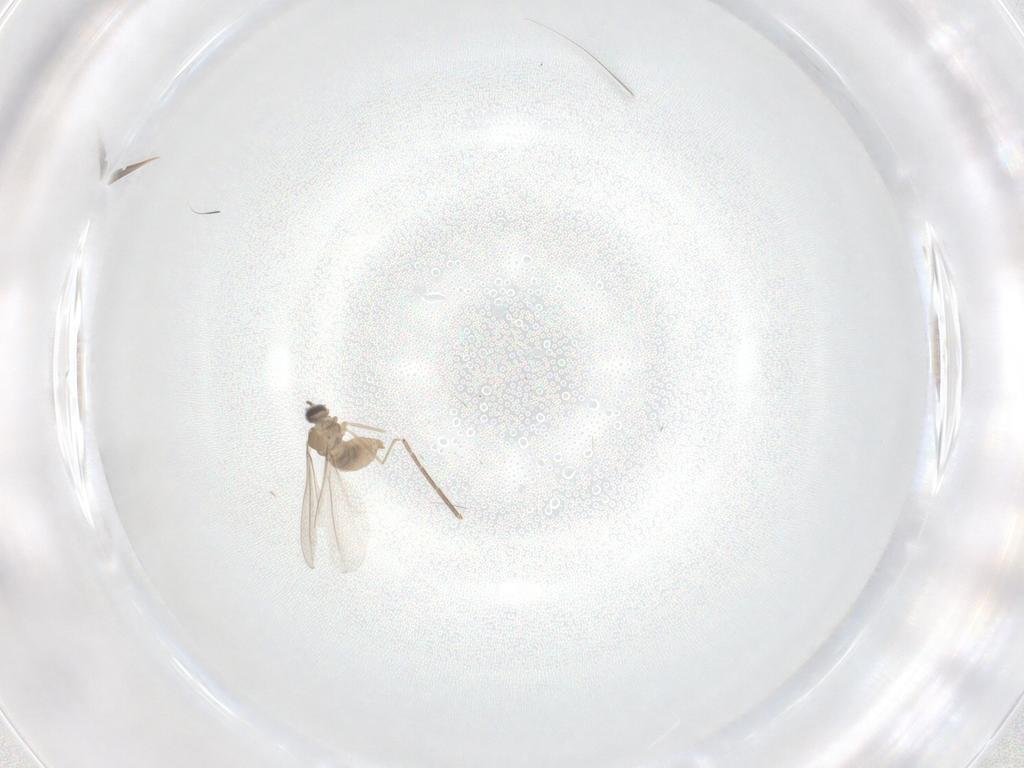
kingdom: Animalia
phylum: Arthropoda
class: Insecta
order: Diptera
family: Cecidomyiidae
